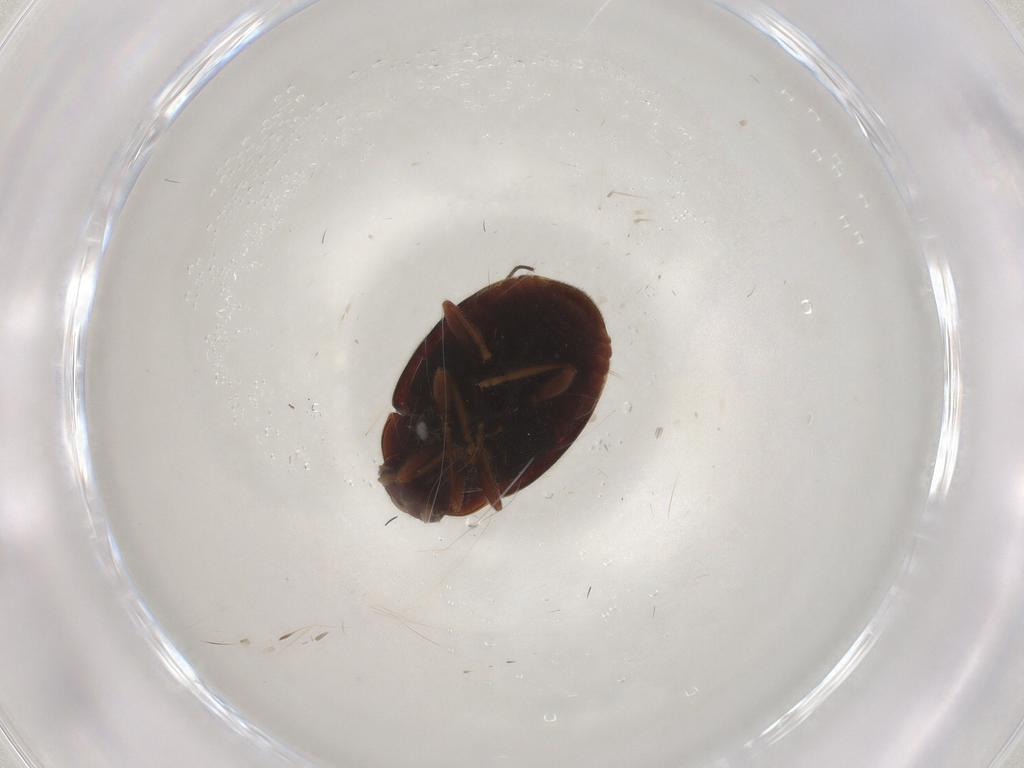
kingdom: Animalia
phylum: Arthropoda
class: Insecta
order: Coleoptera
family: Coccinellidae
